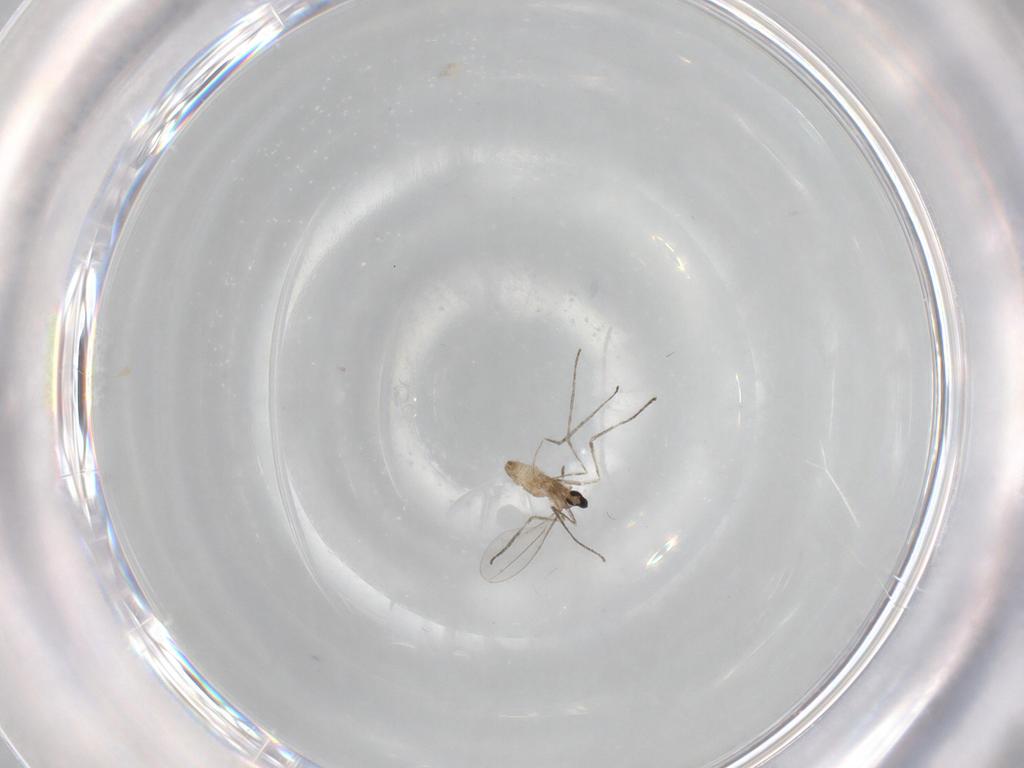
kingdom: Animalia
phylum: Arthropoda
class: Insecta
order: Diptera
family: Cecidomyiidae
